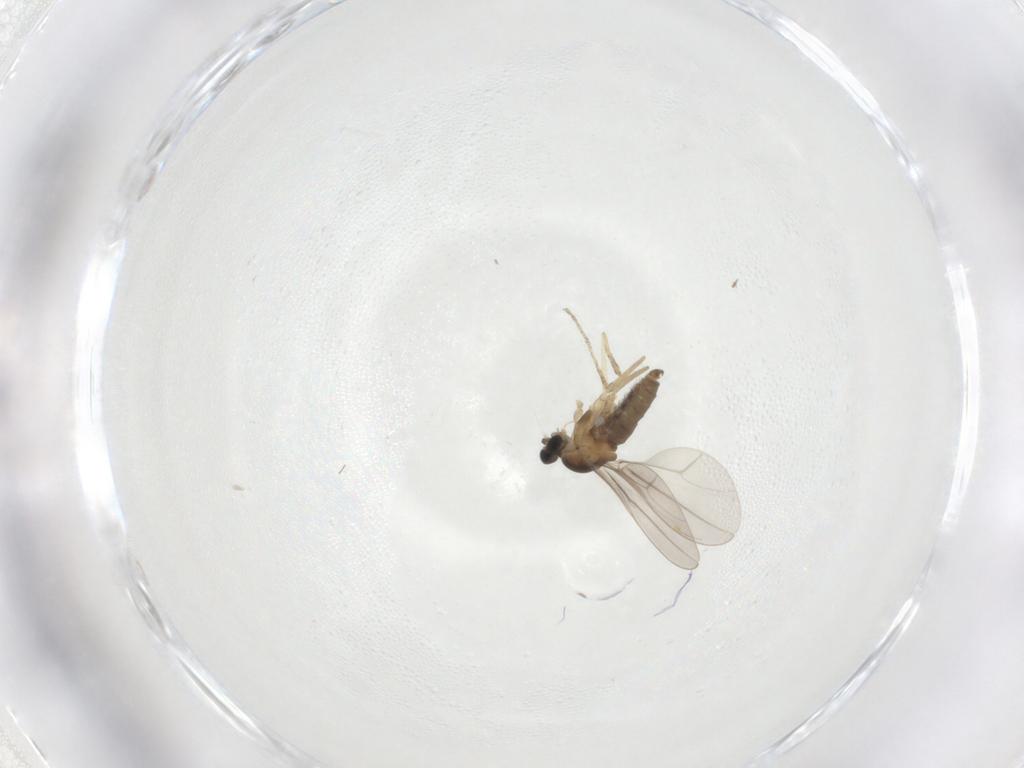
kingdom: Animalia
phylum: Arthropoda
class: Insecta
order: Diptera
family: Cecidomyiidae
